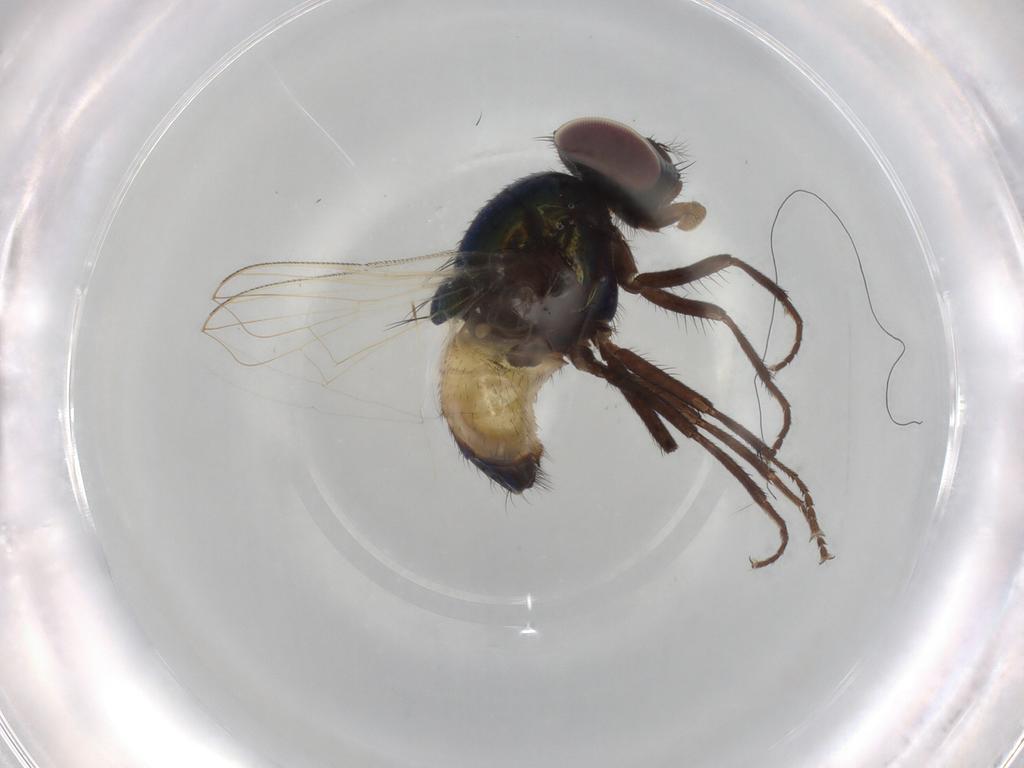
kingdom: Animalia
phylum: Arthropoda
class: Insecta
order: Diptera
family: Muscidae
